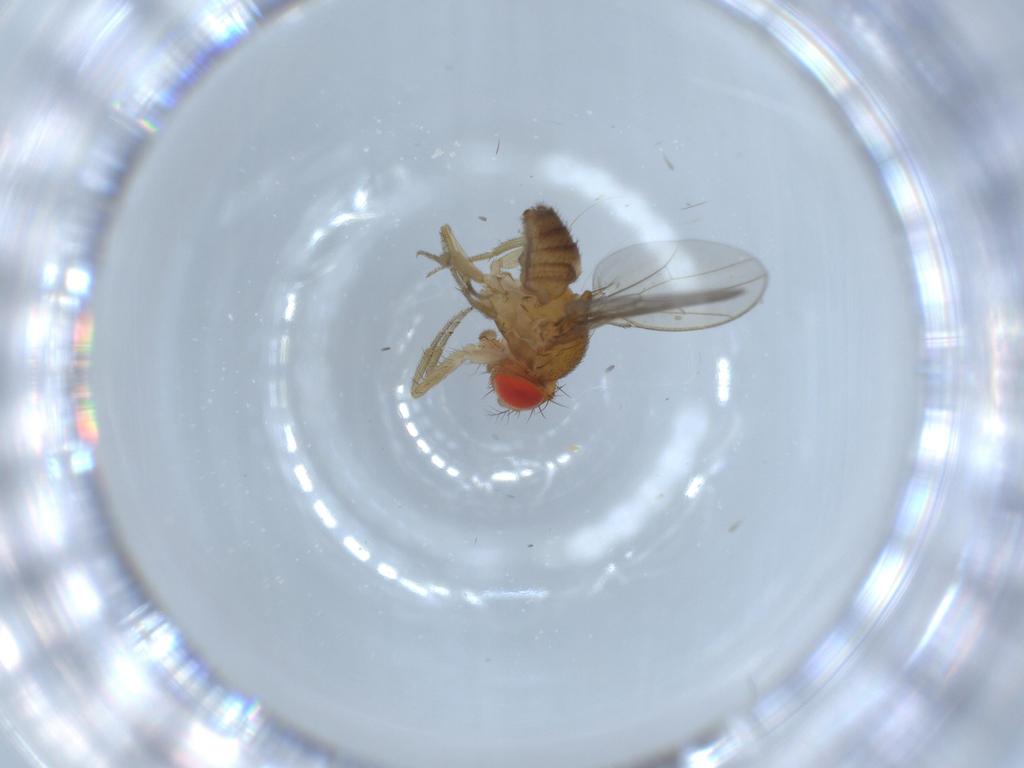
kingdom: Animalia
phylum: Arthropoda
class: Insecta
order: Diptera
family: Drosophilidae
